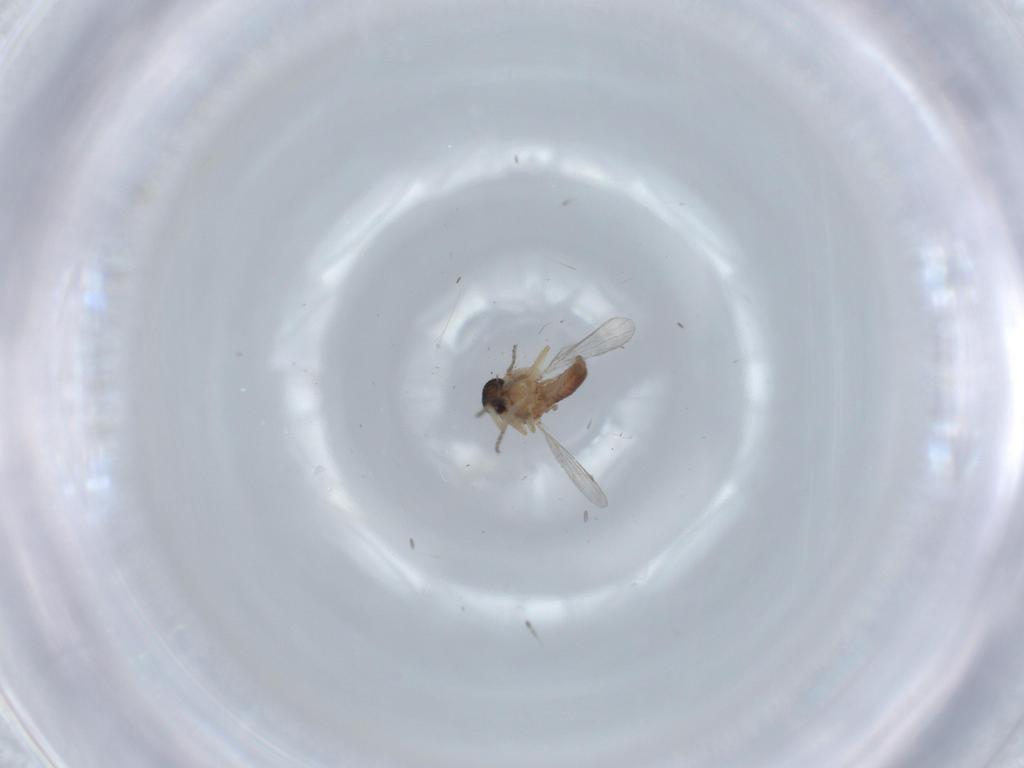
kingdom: Animalia
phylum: Arthropoda
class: Insecta
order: Diptera
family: Ceratopogonidae
